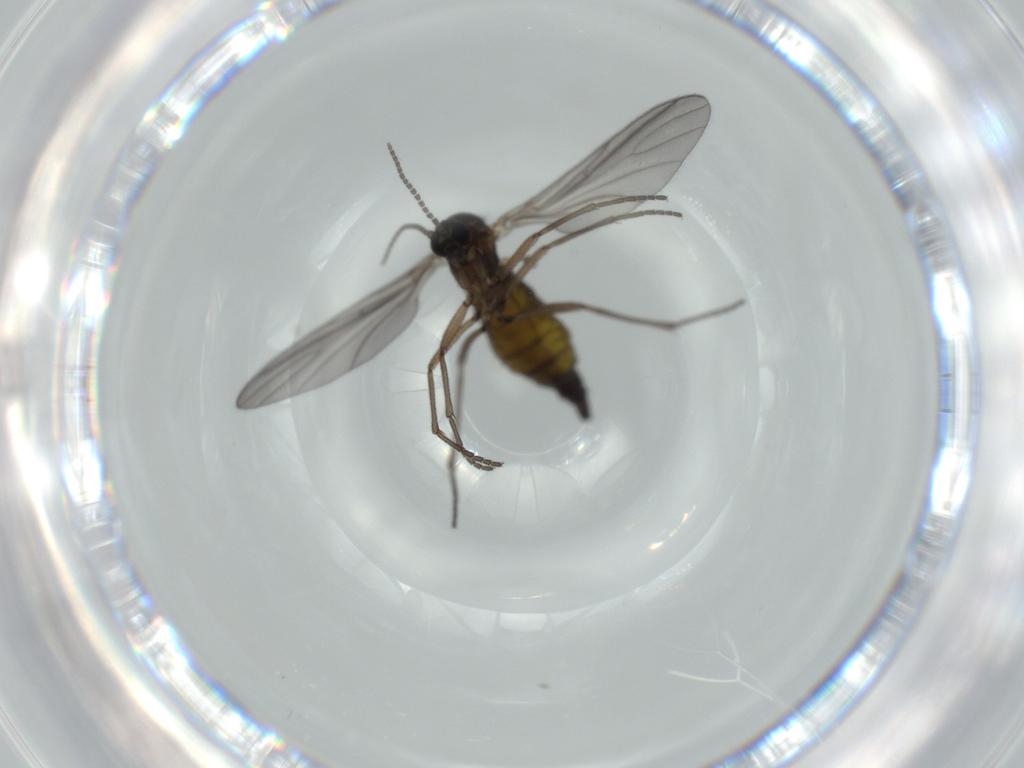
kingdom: Animalia
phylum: Arthropoda
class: Insecta
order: Diptera
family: Sciaridae
